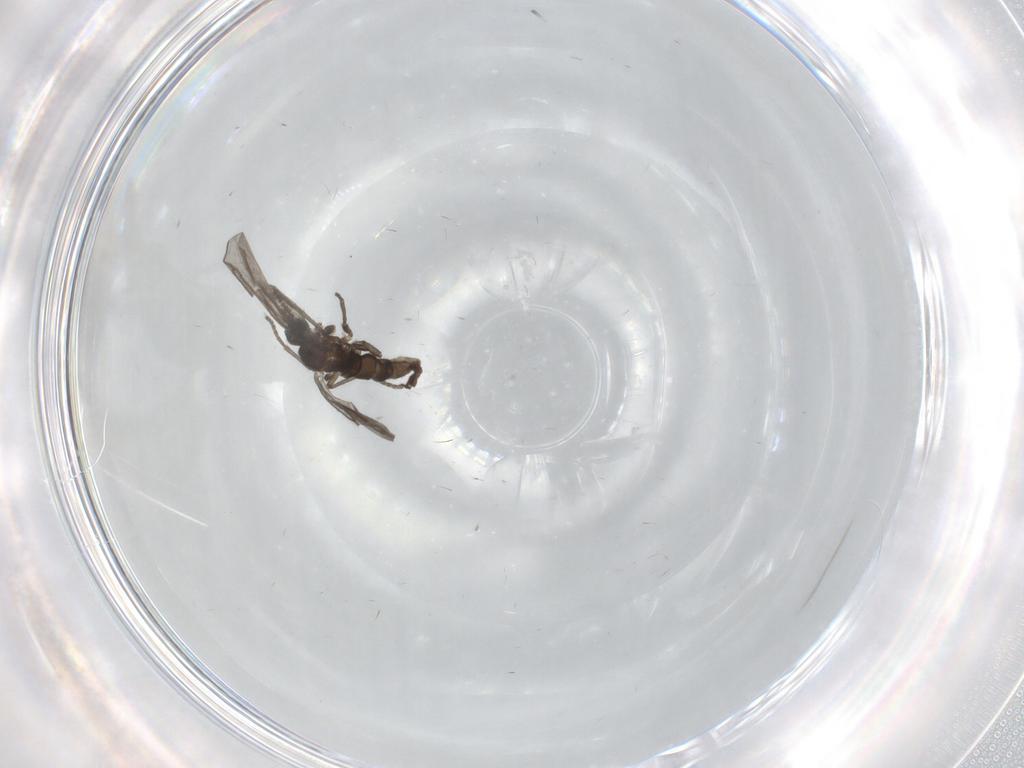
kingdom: Animalia
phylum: Arthropoda
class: Insecta
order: Diptera
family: Limoniidae
